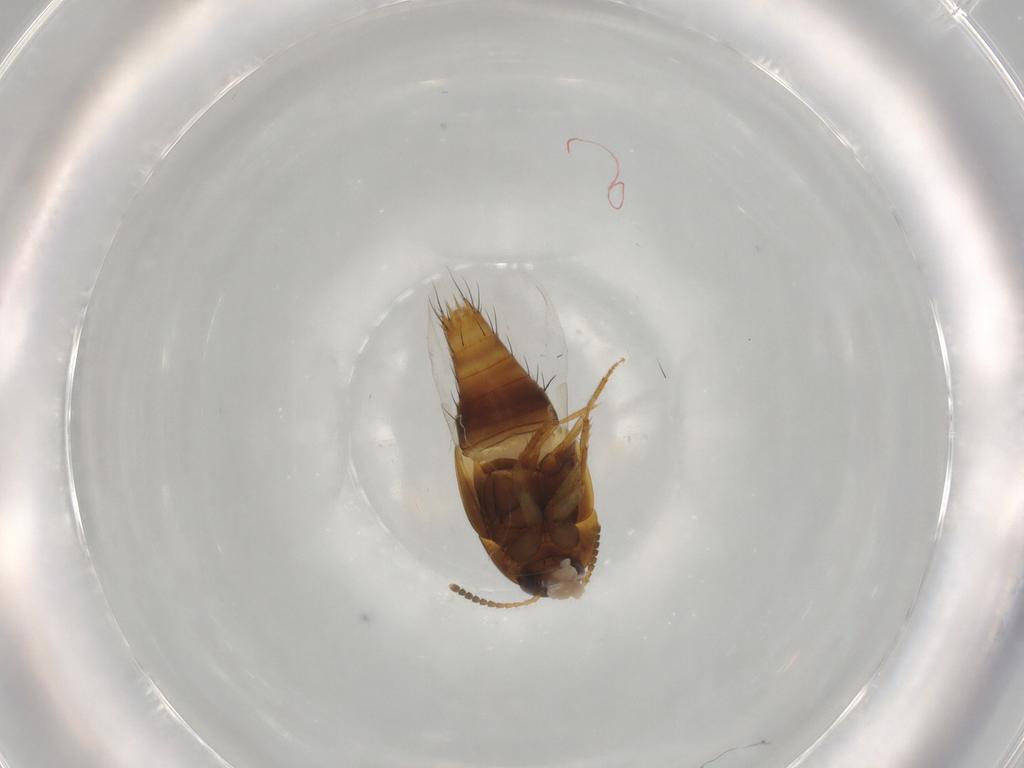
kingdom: Animalia
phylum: Arthropoda
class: Insecta
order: Coleoptera
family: Staphylinidae
